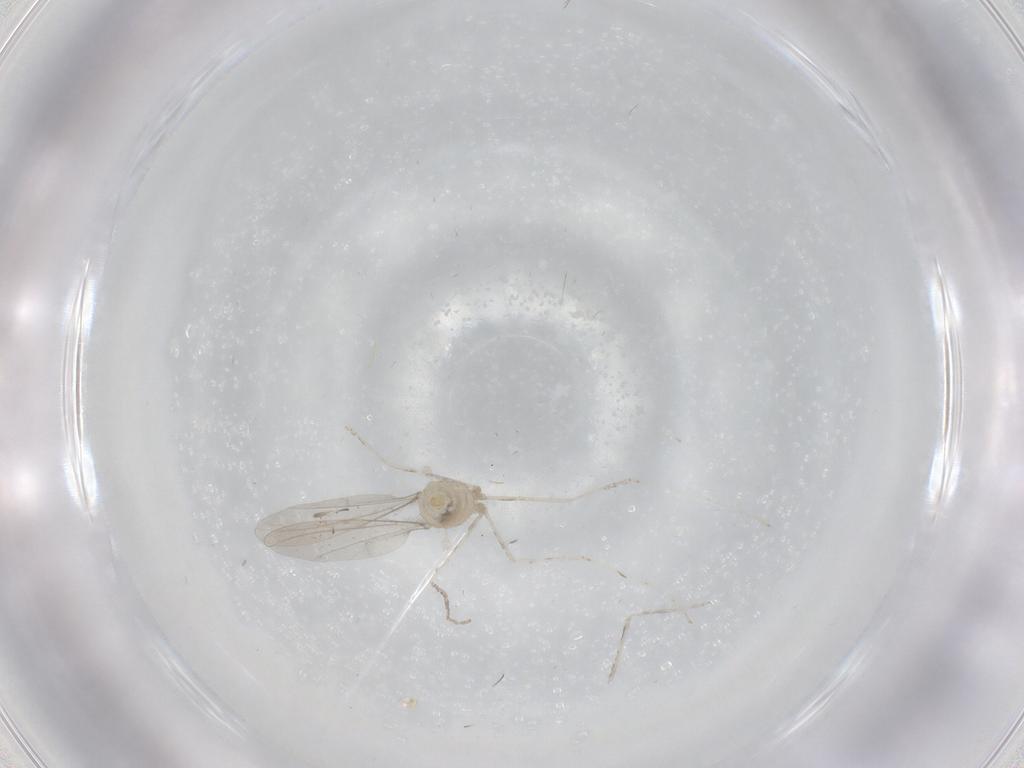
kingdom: Animalia
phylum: Arthropoda
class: Insecta
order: Diptera
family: Cecidomyiidae
